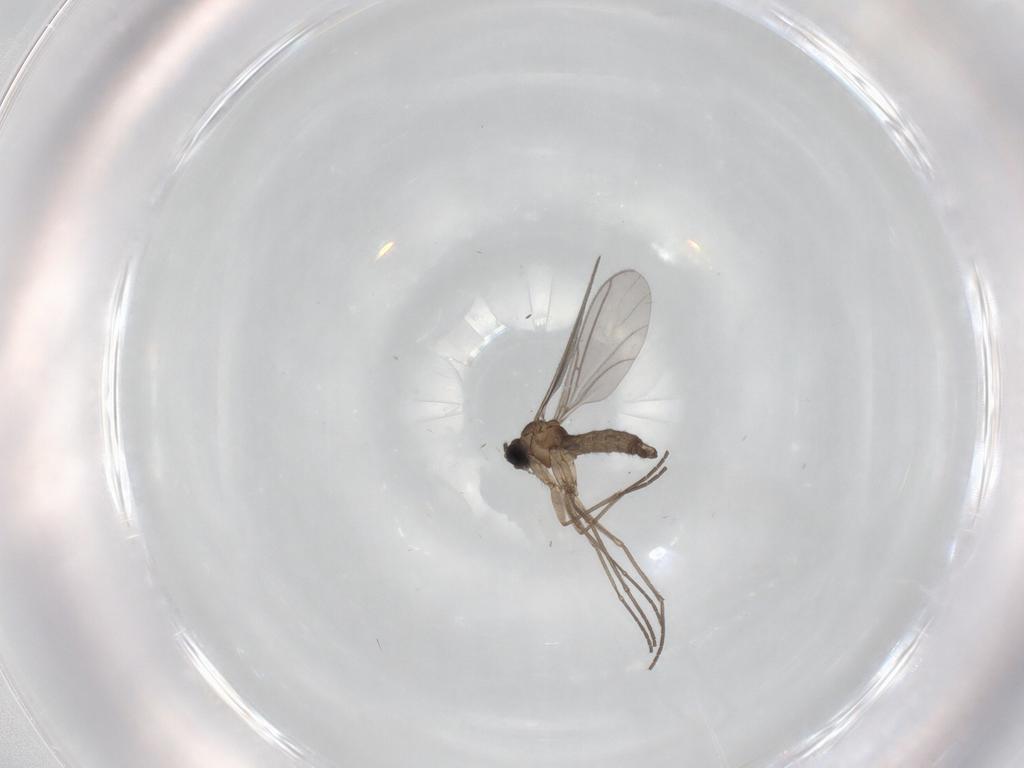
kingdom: Animalia
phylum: Arthropoda
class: Insecta
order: Diptera
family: Sciaridae
